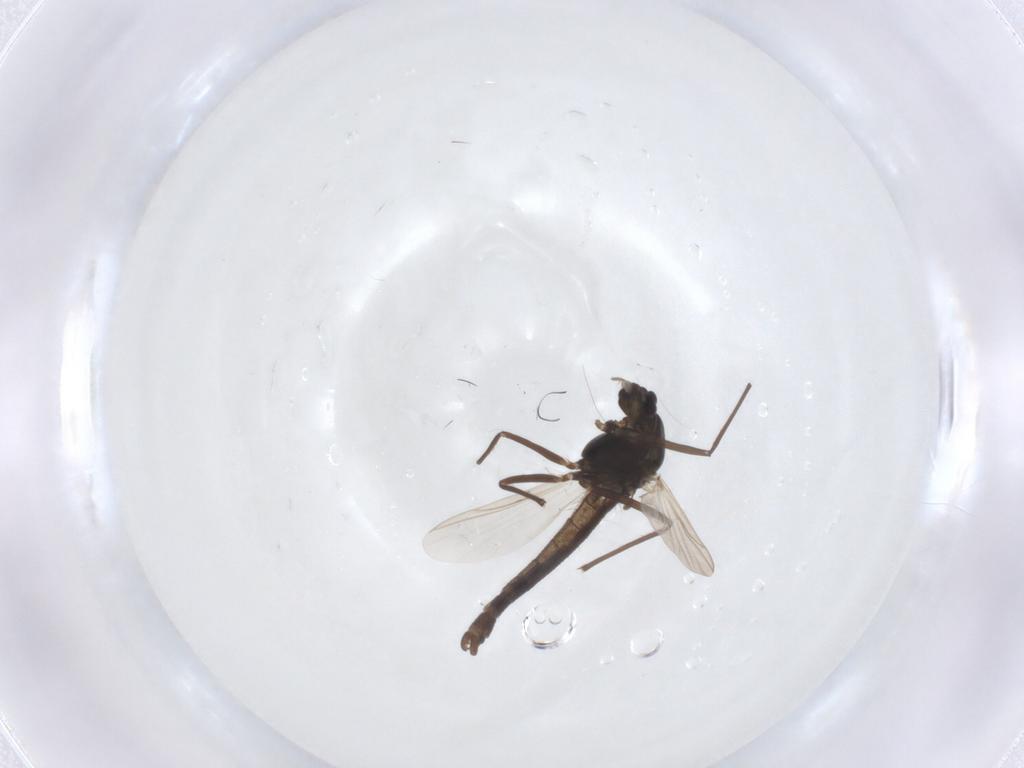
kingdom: Animalia
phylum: Arthropoda
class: Insecta
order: Diptera
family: Chironomidae
